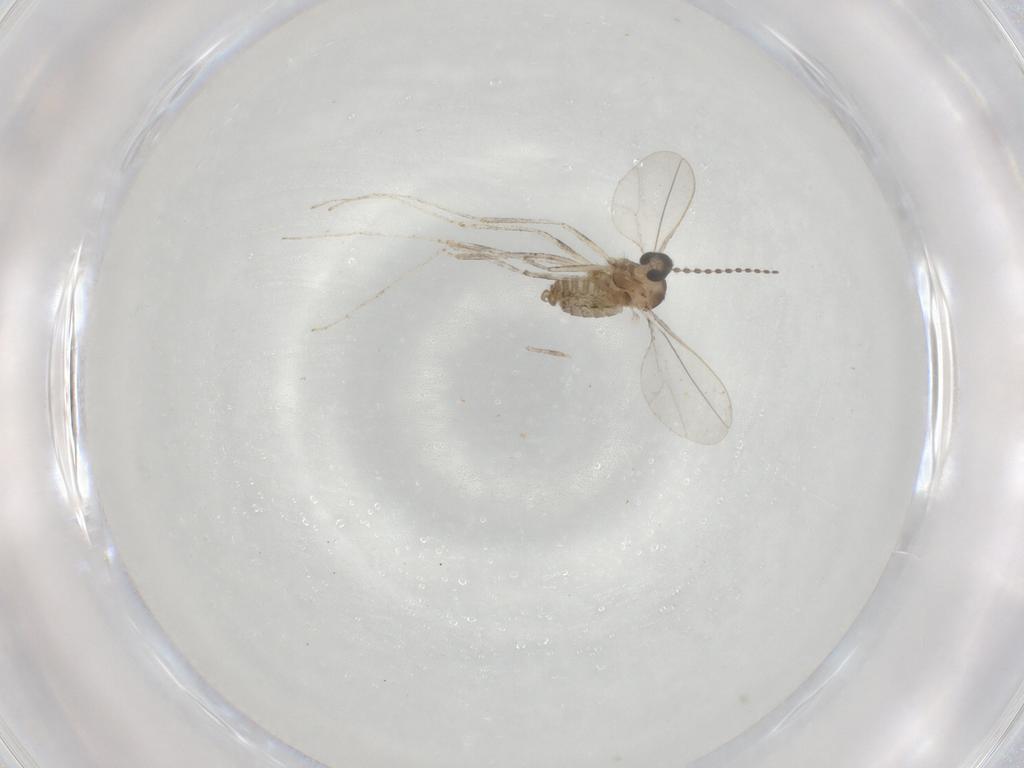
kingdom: Animalia
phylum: Arthropoda
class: Insecta
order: Diptera
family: Cecidomyiidae
